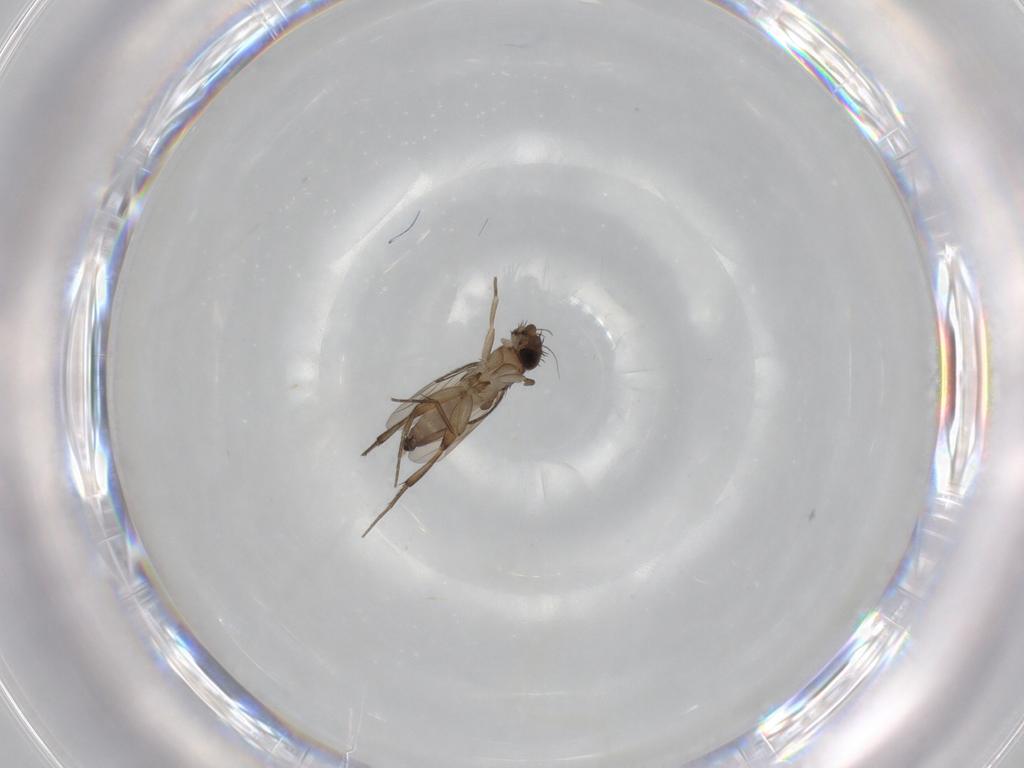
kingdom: Animalia
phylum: Arthropoda
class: Insecta
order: Diptera
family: Phoridae
